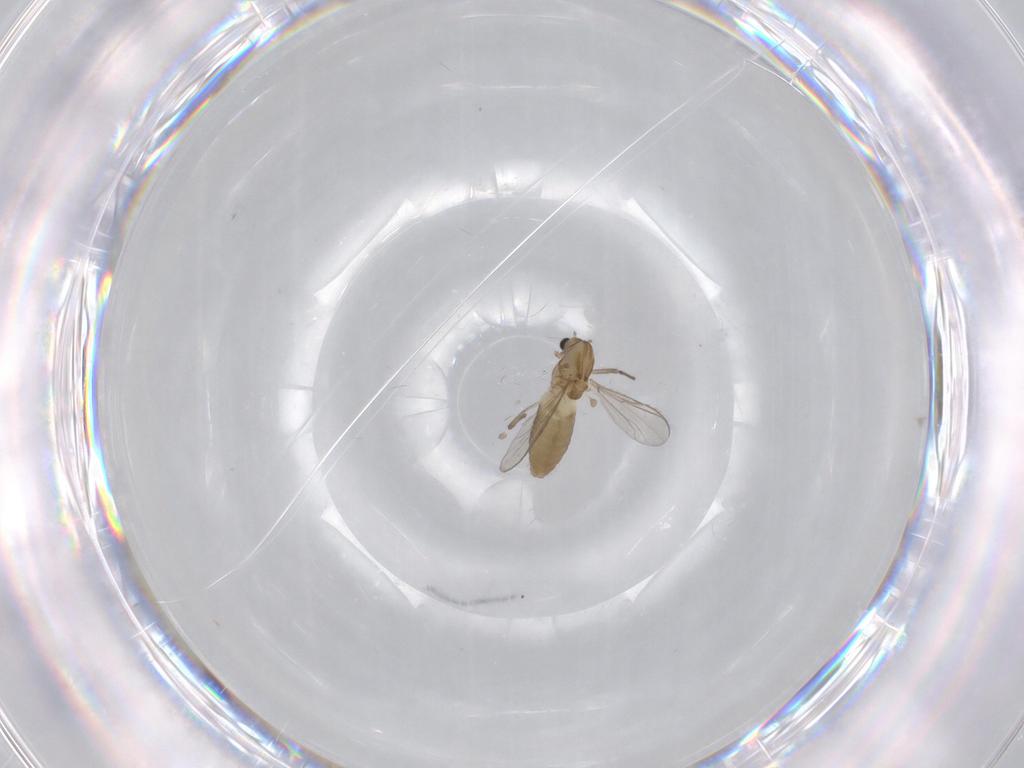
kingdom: Animalia
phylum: Arthropoda
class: Insecta
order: Diptera
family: Chironomidae
